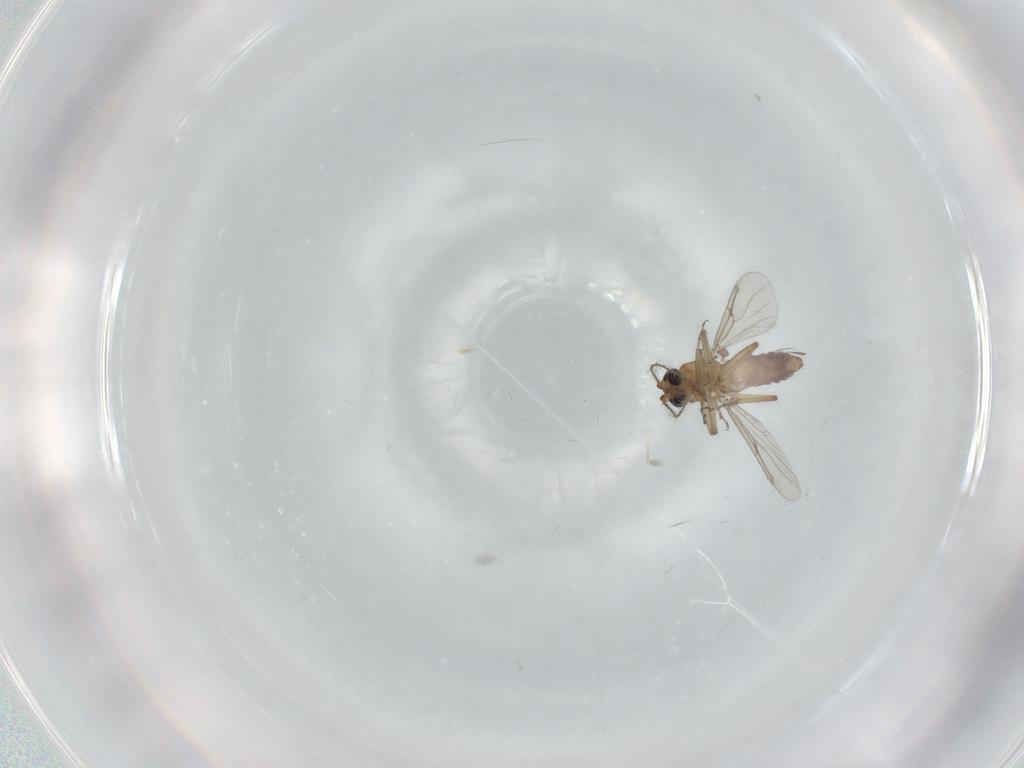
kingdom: Animalia
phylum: Arthropoda
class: Insecta
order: Diptera
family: Ceratopogonidae
